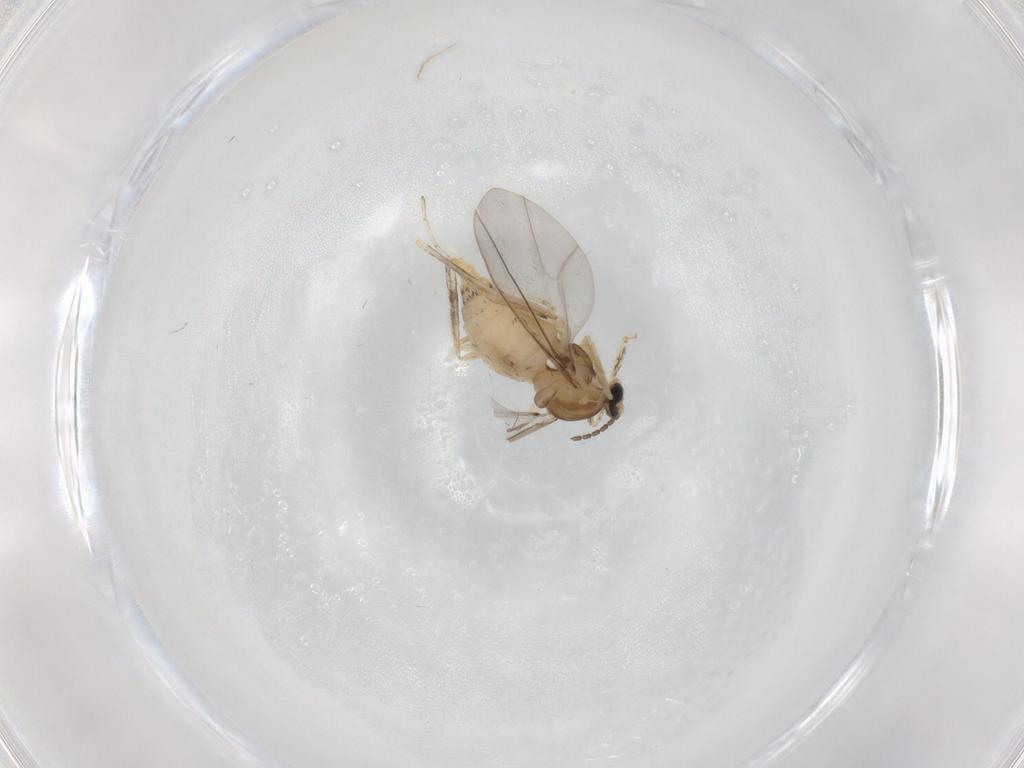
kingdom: Animalia
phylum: Arthropoda
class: Insecta
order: Diptera
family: Cecidomyiidae
